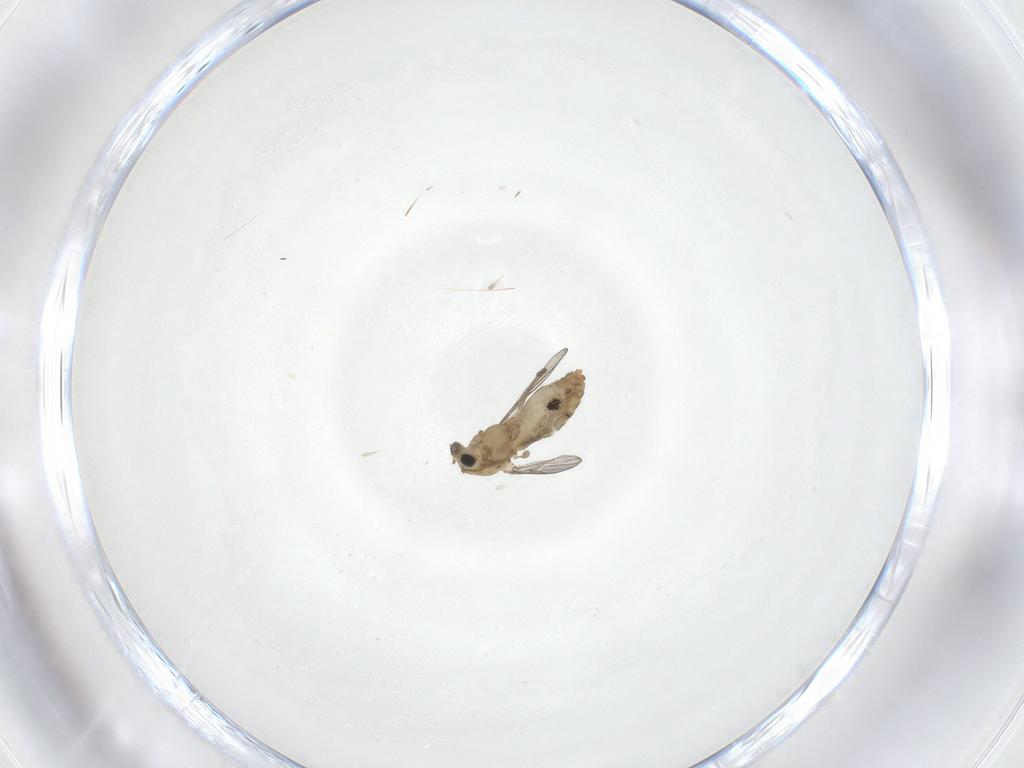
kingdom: Animalia
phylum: Arthropoda
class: Insecta
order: Diptera
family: Chironomidae
